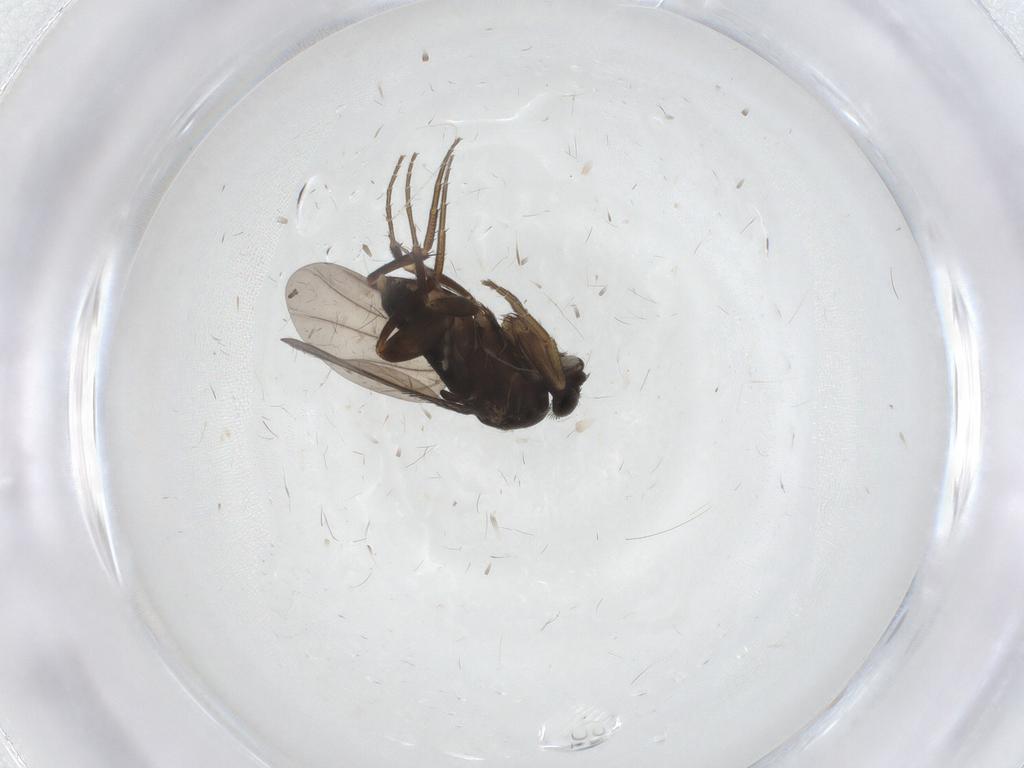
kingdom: Animalia
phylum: Arthropoda
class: Insecta
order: Diptera
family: Phoridae
